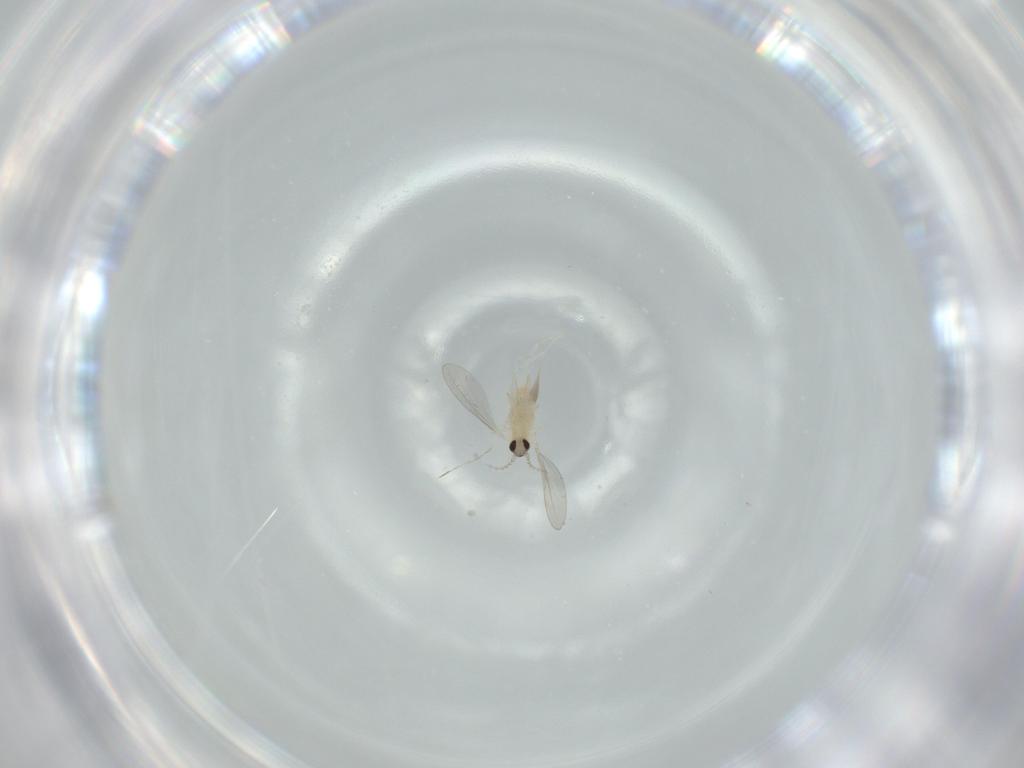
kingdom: Animalia
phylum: Arthropoda
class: Insecta
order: Diptera
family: Cecidomyiidae
